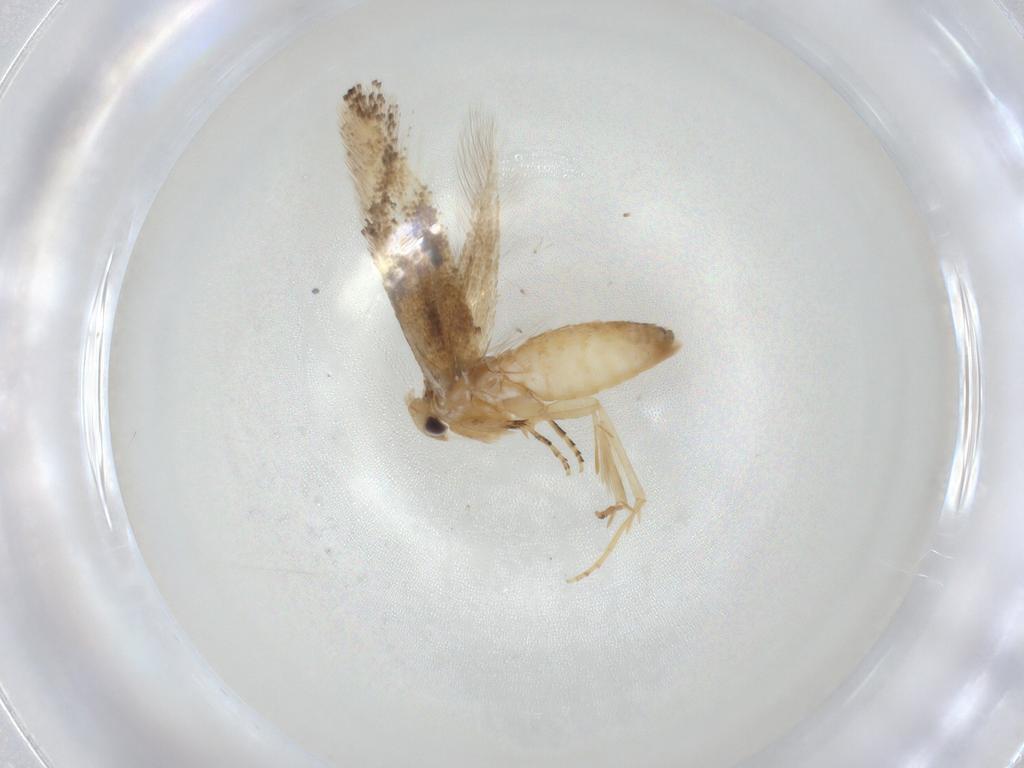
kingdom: Animalia
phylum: Arthropoda
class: Insecta
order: Lepidoptera
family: Bucculatricidae
